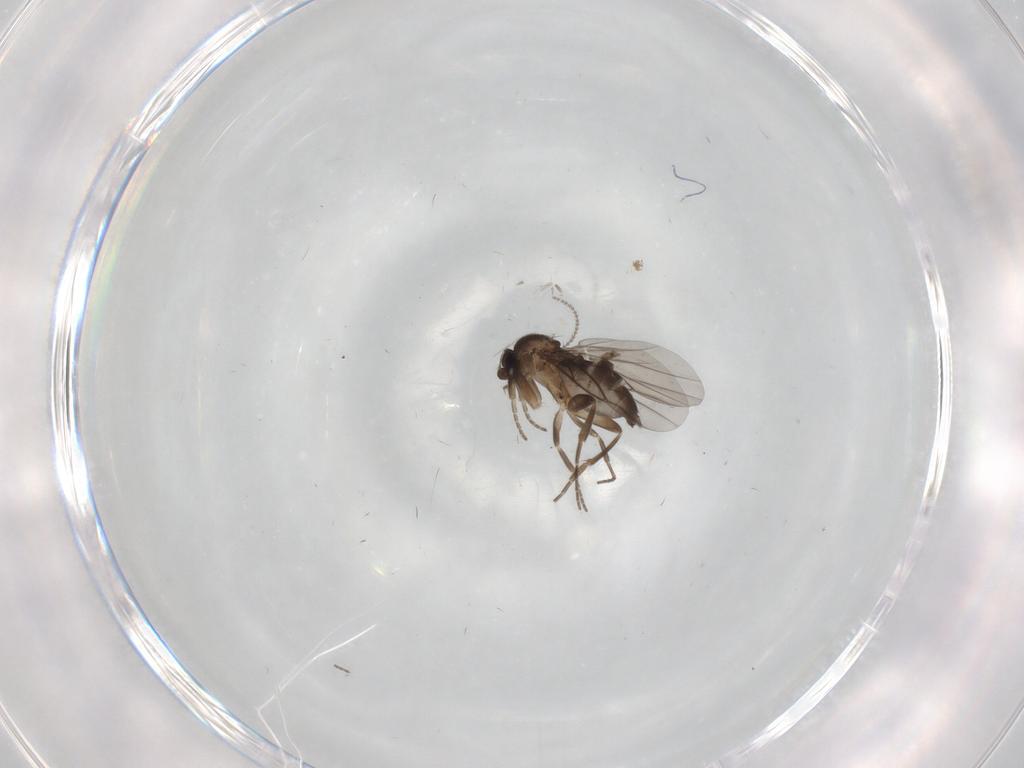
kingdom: Animalia
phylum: Arthropoda
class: Insecta
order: Diptera
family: Cecidomyiidae
